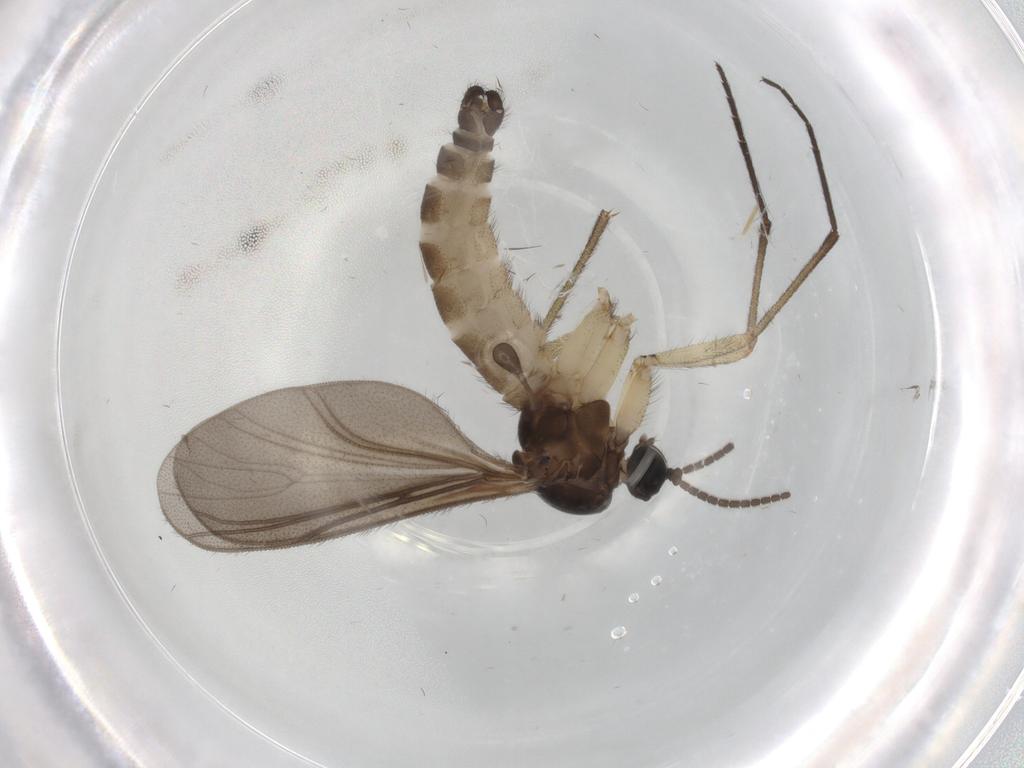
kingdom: Animalia
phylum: Arthropoda
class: Insecta
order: Diptera
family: Sciaridae
